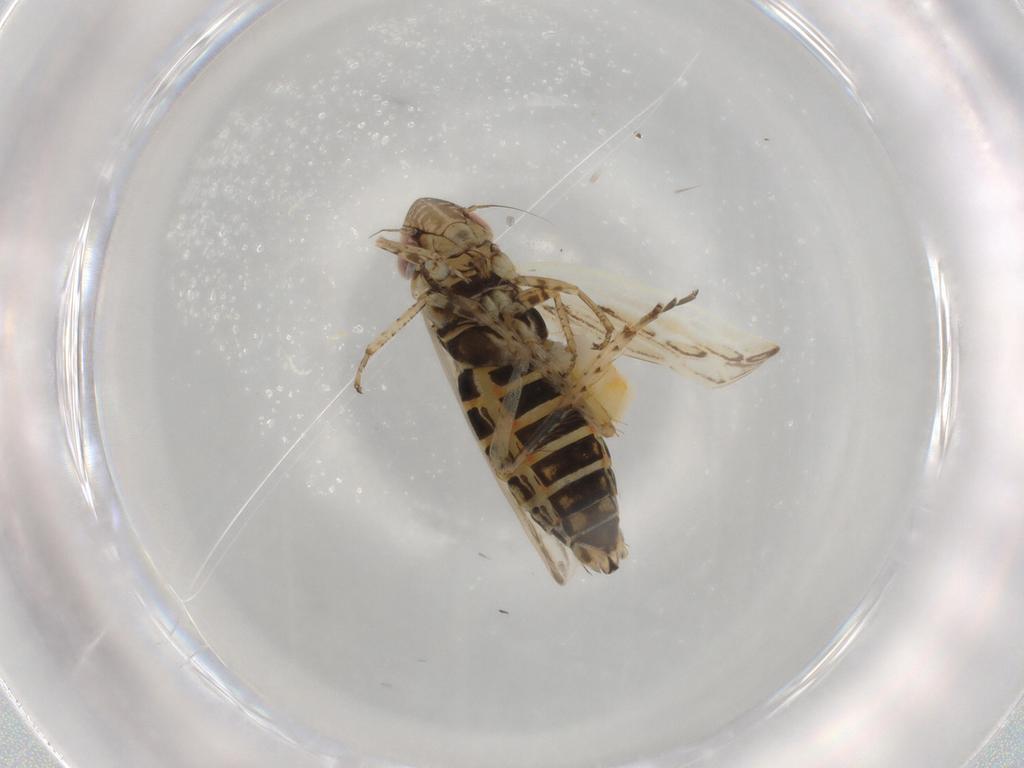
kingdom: Animalia
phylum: Arthropoda
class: Insecta
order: Hemiptera
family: Cicadellidae
